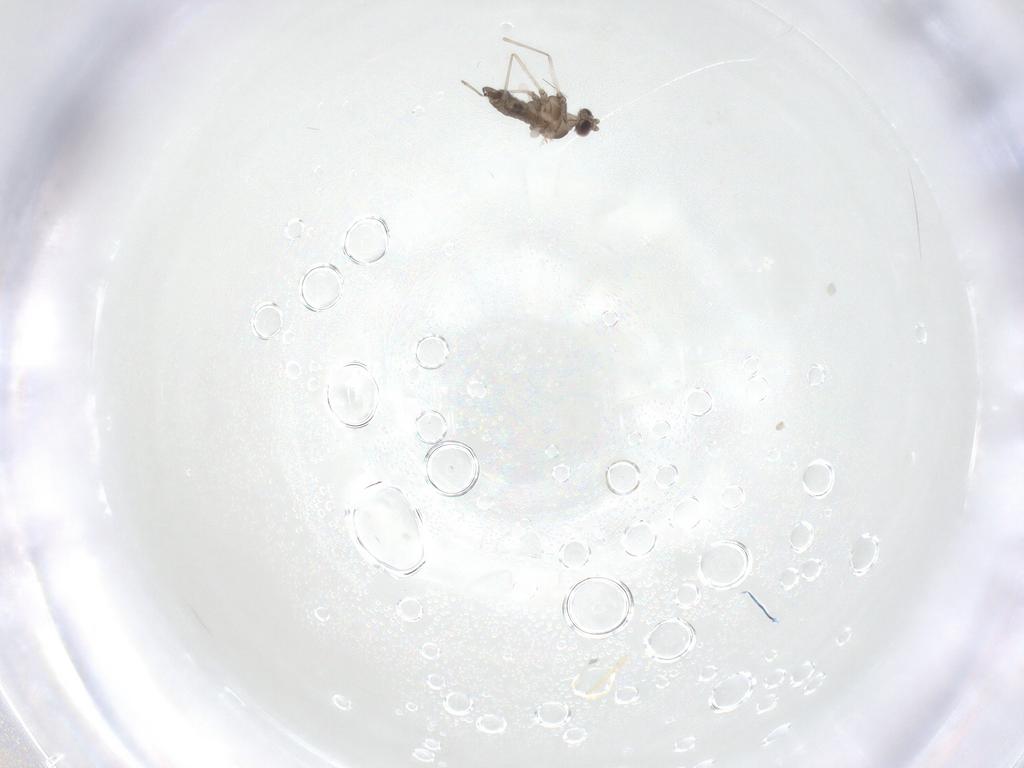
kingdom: Animalia
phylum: Arthropoda
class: Insecta
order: Diptera
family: Cecidomyiidae
